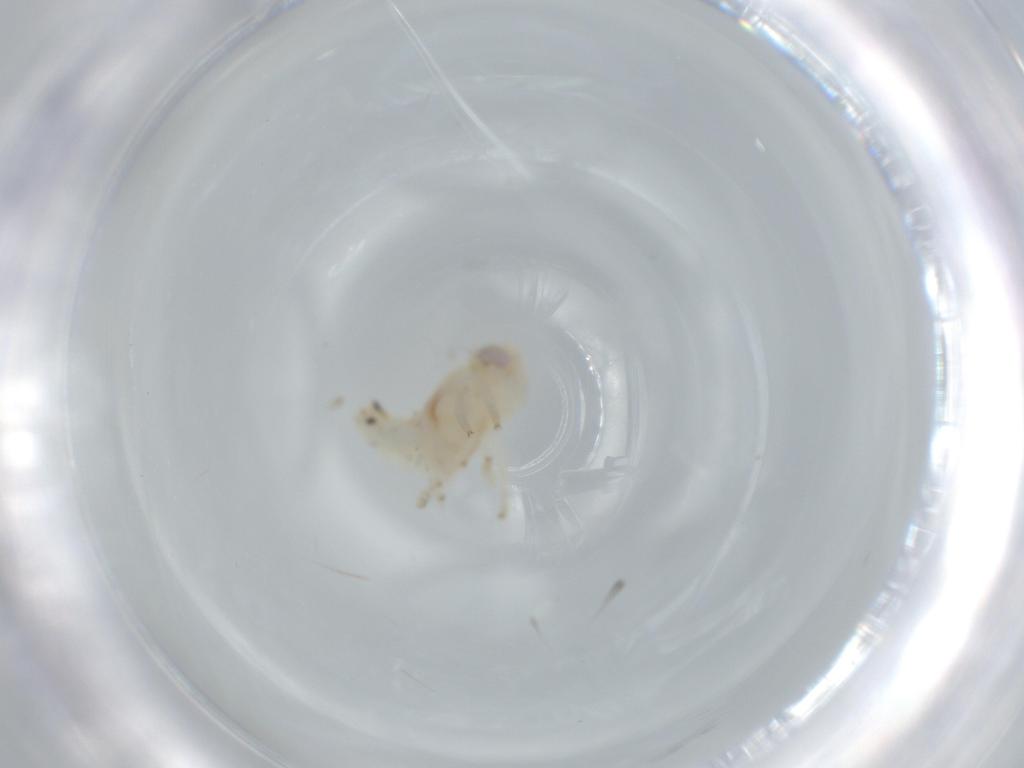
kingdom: Animalia
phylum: Arthropoda
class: Insecta
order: Hemiptera
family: Nogodinidae
